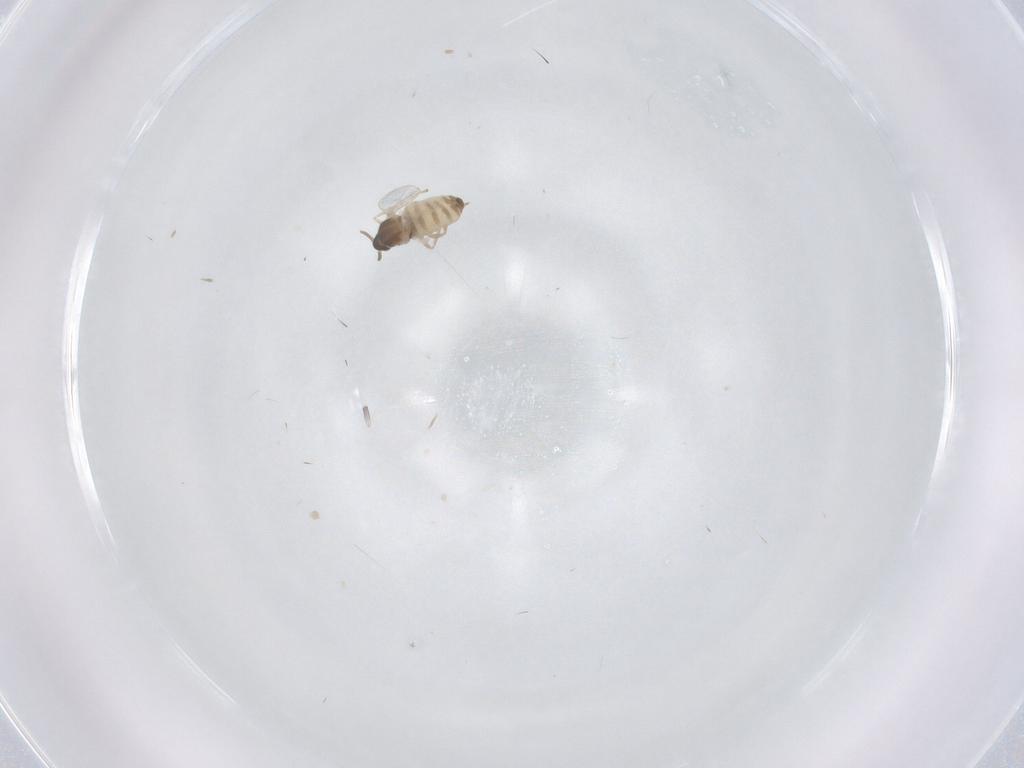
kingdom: Animalia
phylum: Arthropoda
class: Insecta
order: Diptera
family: Cecidomyiidae
